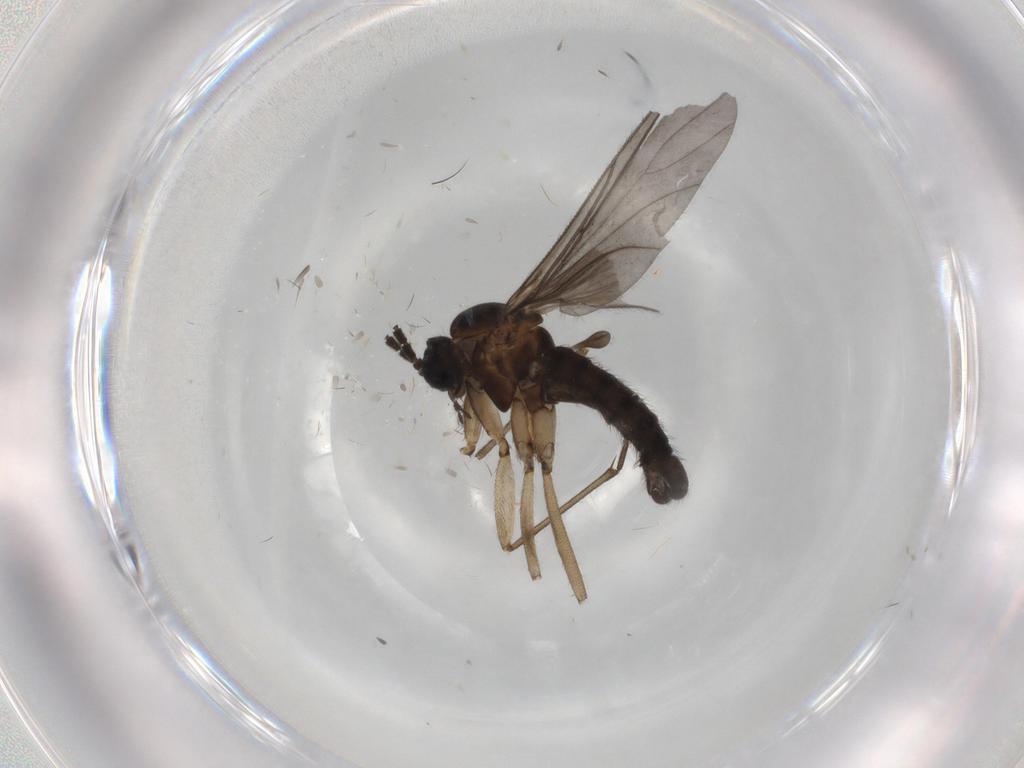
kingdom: Animalia
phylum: Arthropoda
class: Insecta
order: Diptera
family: Sciaridae
